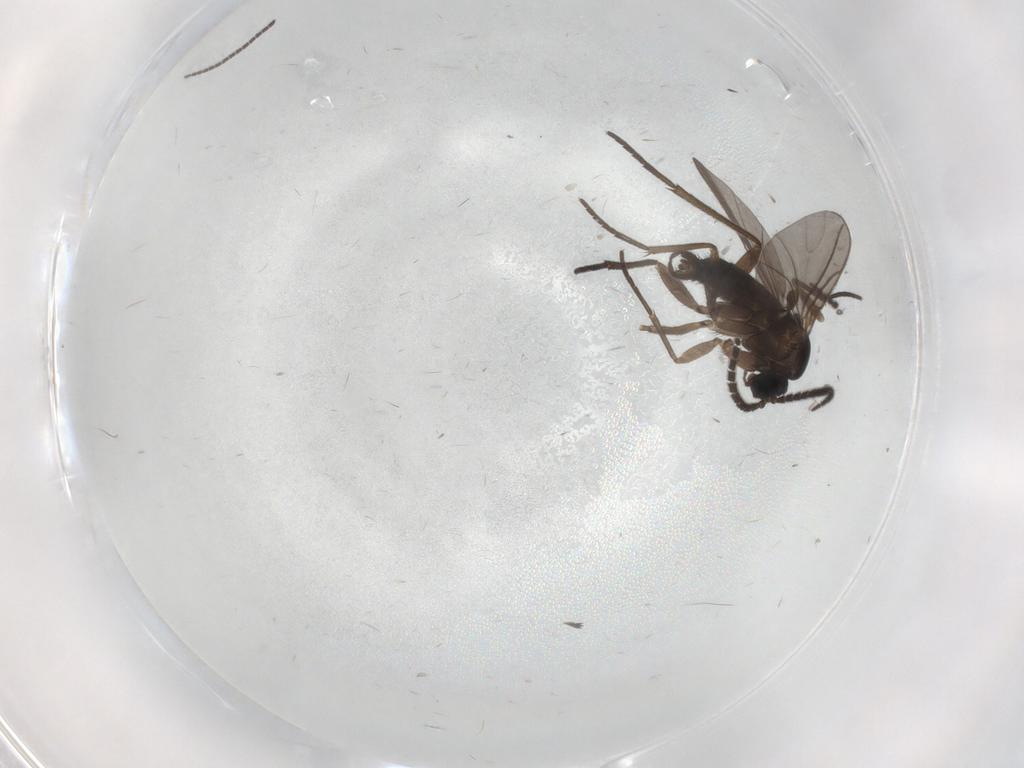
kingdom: Animalia
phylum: Arthropoda
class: Insecta
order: Diptera
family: Sciaridae
